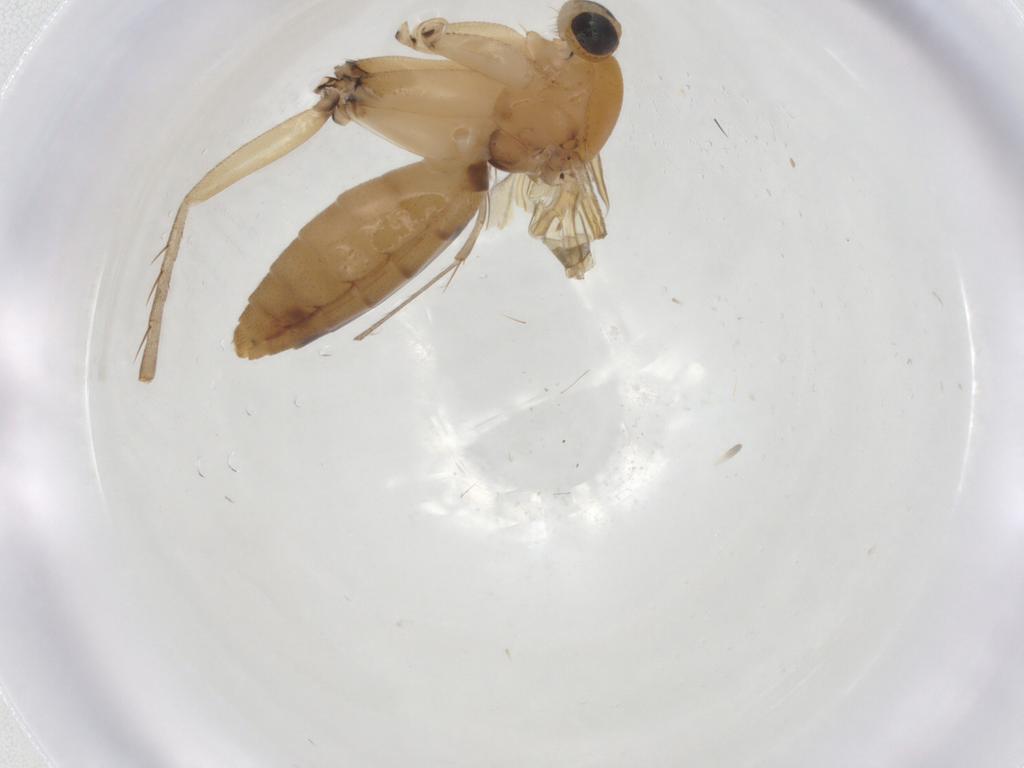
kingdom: Animalia
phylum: Arthropoda
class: Insecta
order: Diptera
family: Mycetophilidae
